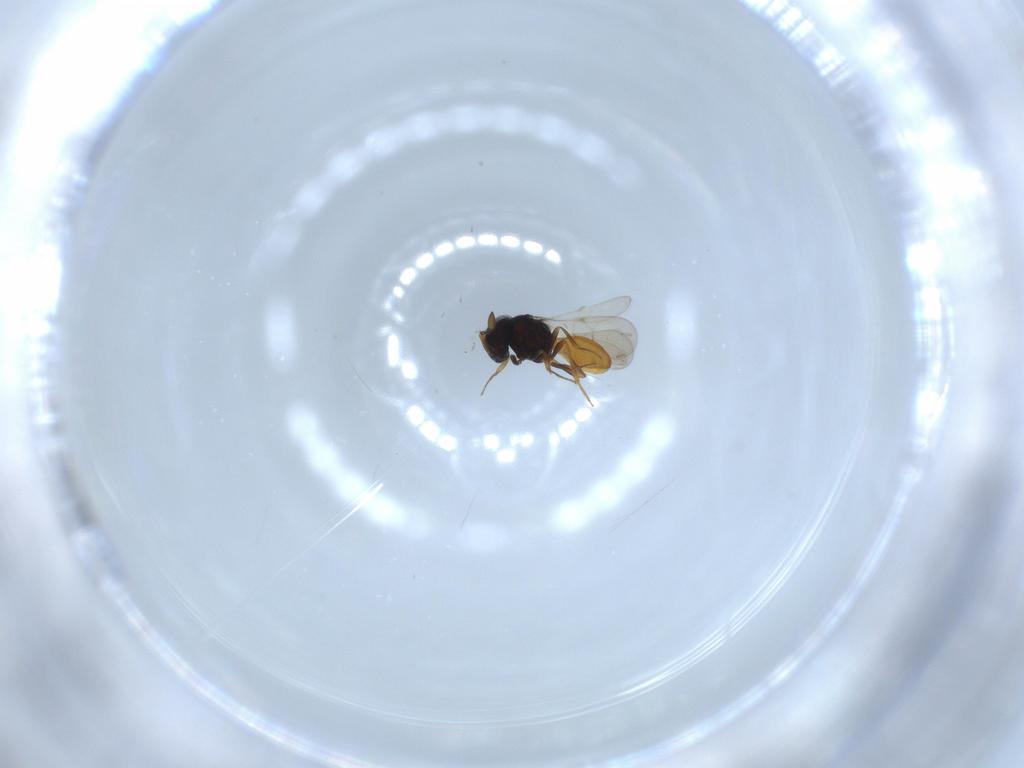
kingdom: Animalia
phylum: Arthropoda
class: Insecta
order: Hymenoptera
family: Scelionidae
